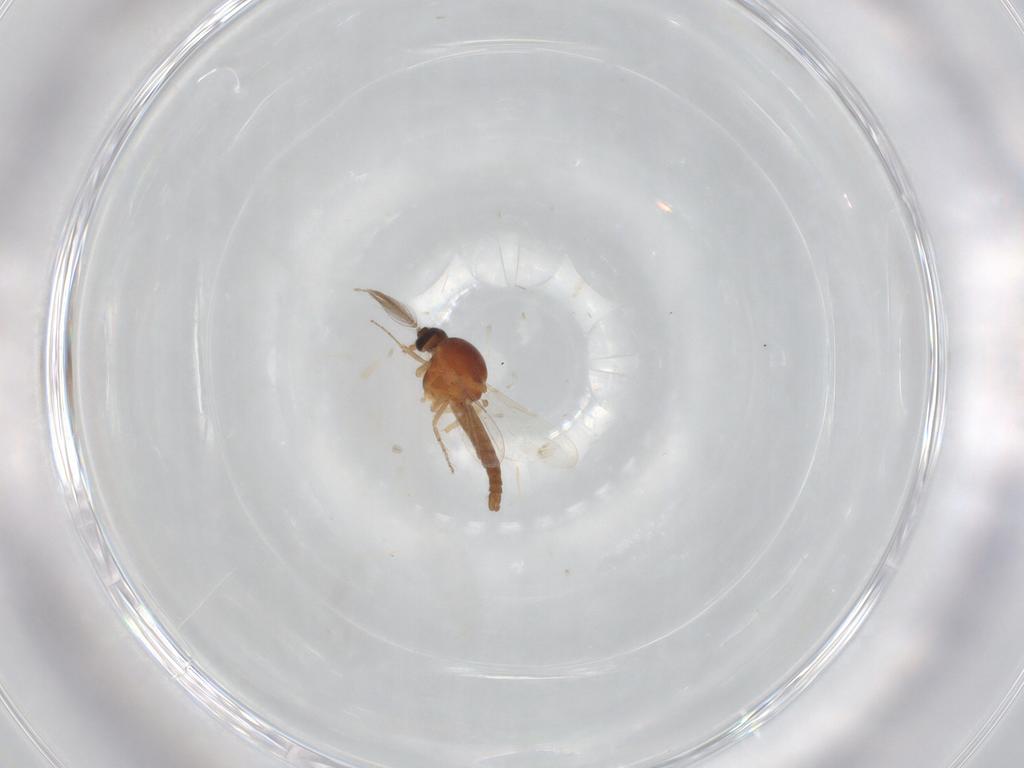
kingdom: Animalia
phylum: Arthropoda
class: Insecta
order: Diptera
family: Ceratopogonidae
